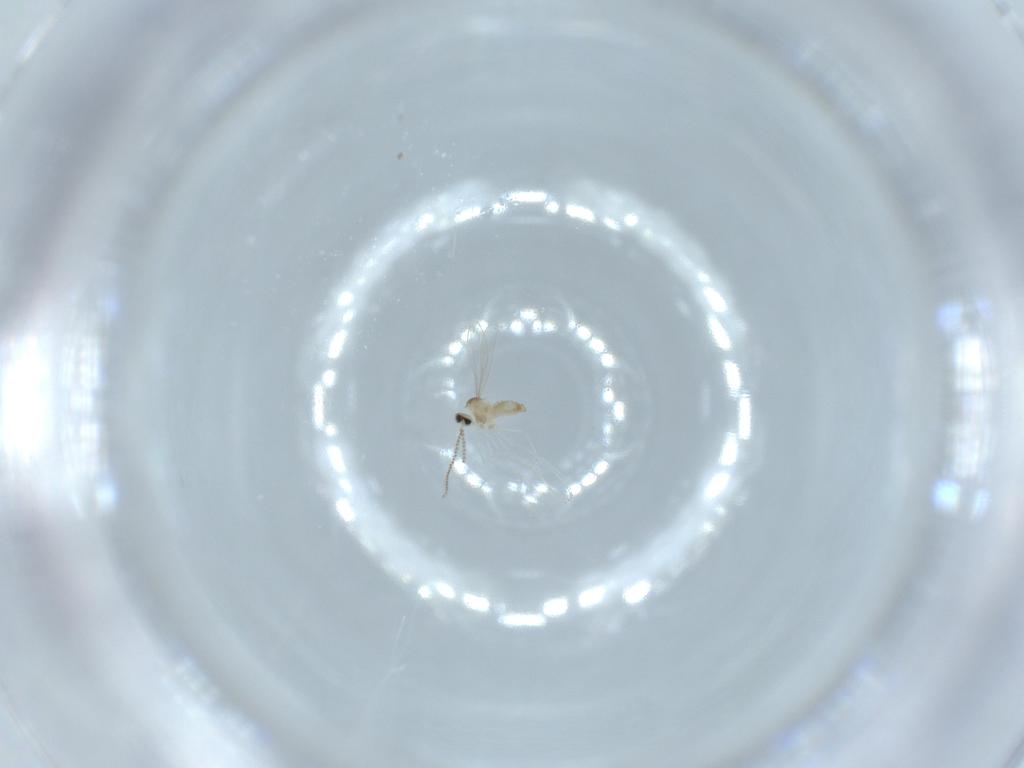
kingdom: Animalia
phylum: Arthropoda
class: Insecta
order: Diptera
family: Cecidomyiidae
